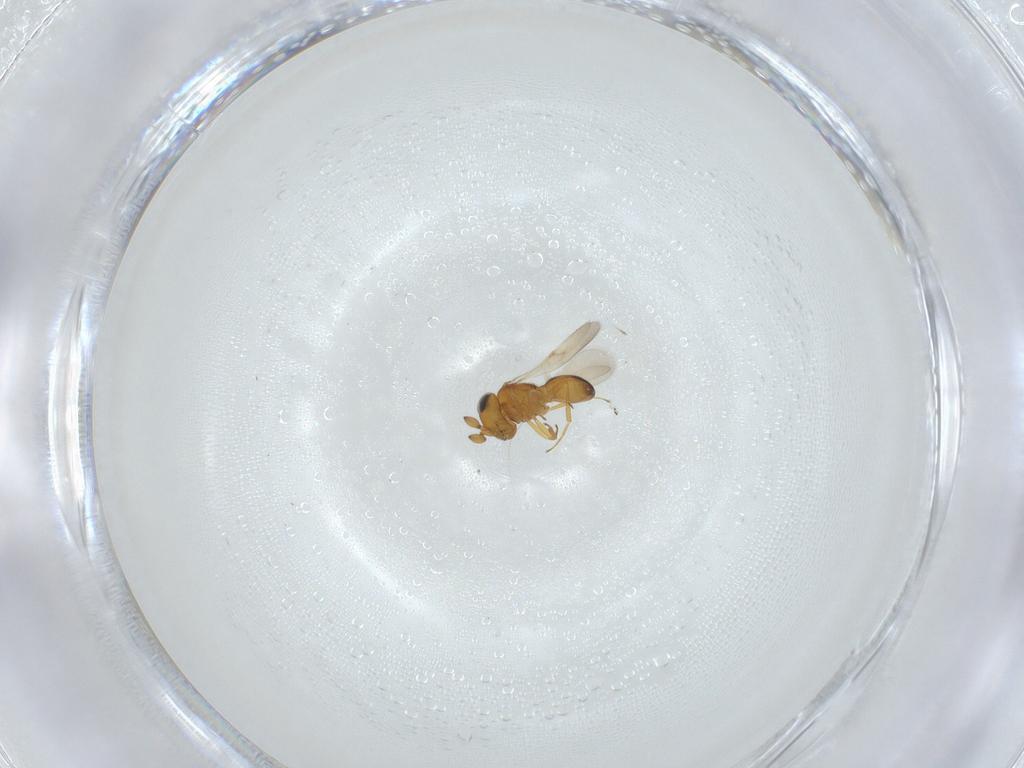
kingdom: Animalia
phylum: Arthropoda
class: Insecta
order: Hymenoptera
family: Scelionidae
